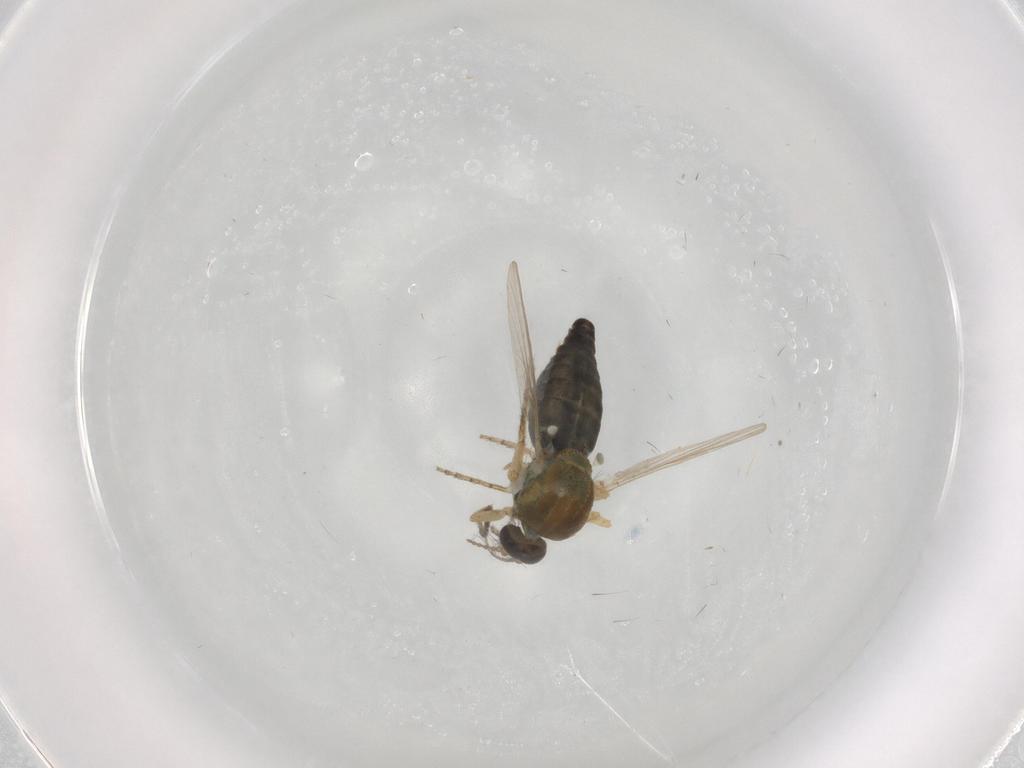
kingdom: Animalia
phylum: Arthropoda
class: Insecta
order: Diptera
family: Ceratopogonidae
